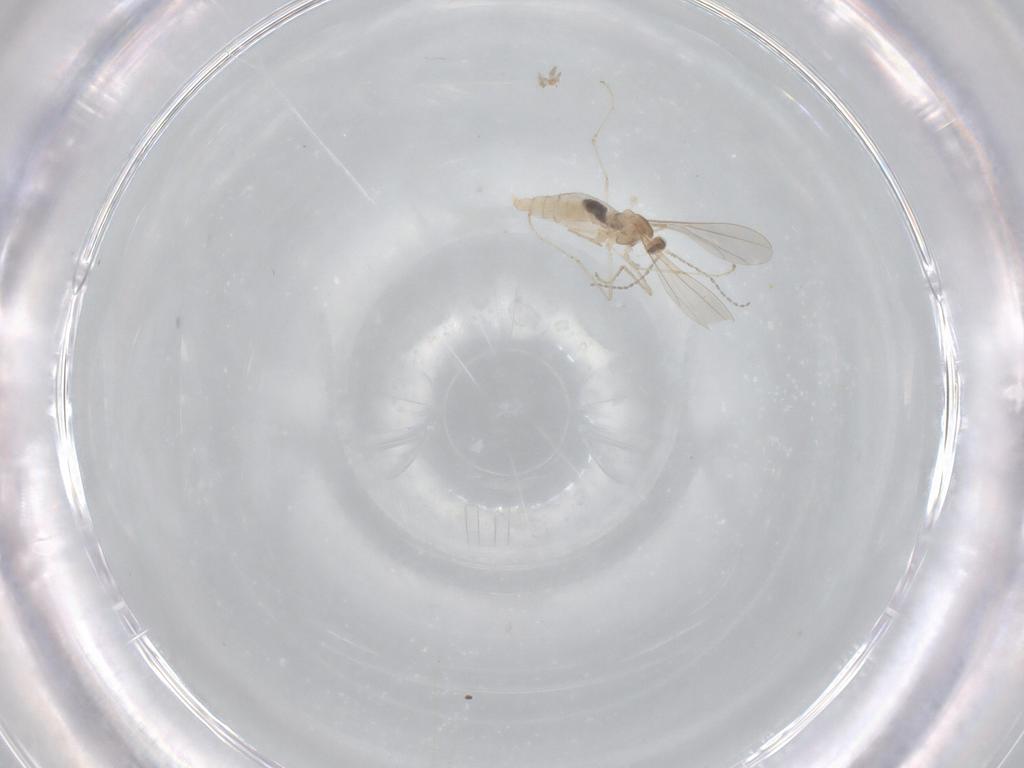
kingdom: Animalia
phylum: Arthropoda
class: Insecta
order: Diptera
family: Cecidomyiidae
